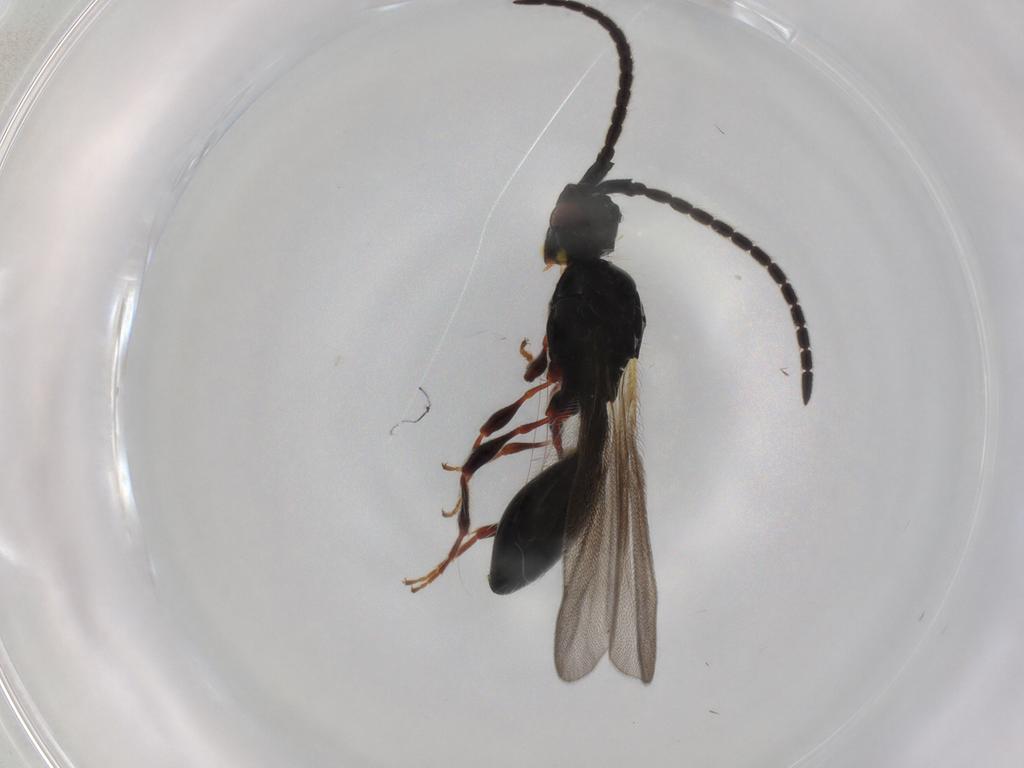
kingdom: Animalia
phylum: Arthropoda
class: Insecta
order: Hymenoptera
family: Diapriidae
